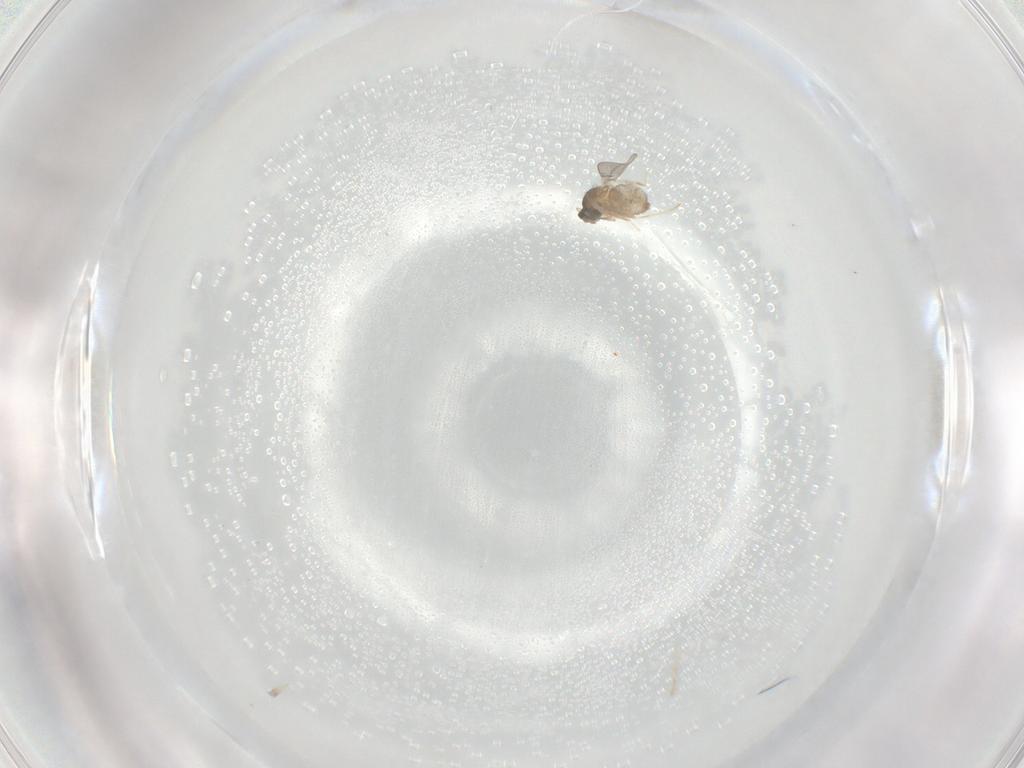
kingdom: Animalia
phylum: Arthropoda
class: Insecta
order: Diptera
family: Cecidomyiidae
